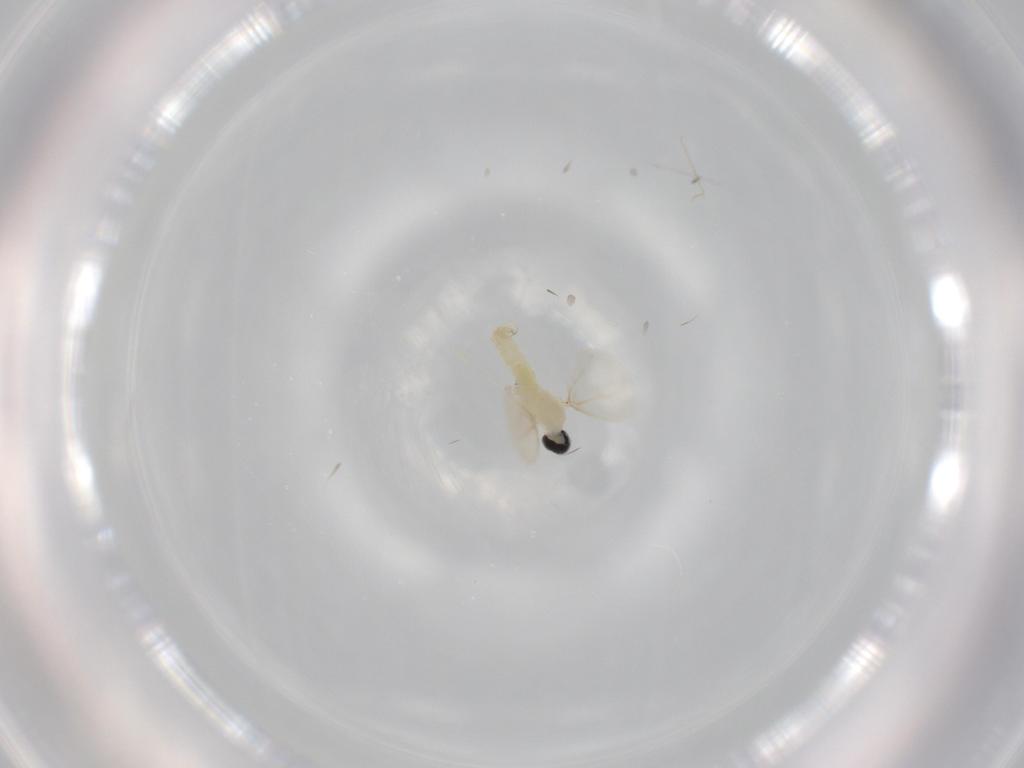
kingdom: Animalia
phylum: Arthropoda
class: Insecta
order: Diptera
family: Cecidomyiidae
